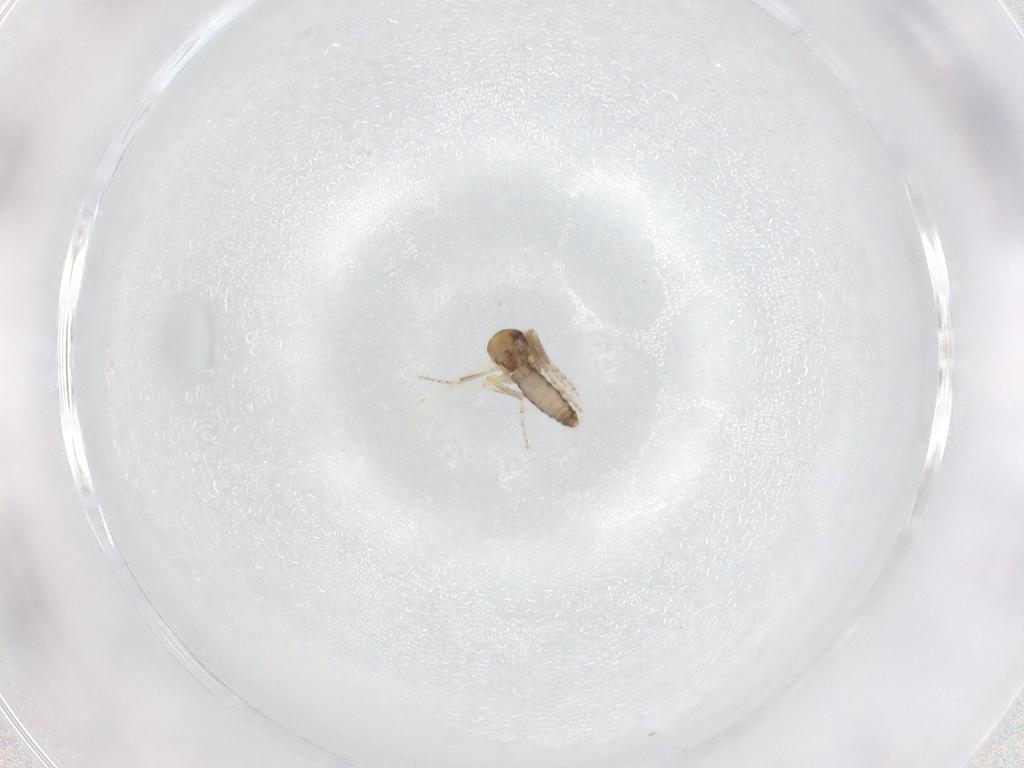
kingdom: Animalia
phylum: Arthropoda
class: Insecta
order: Diptera
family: Ceratopogonidae
